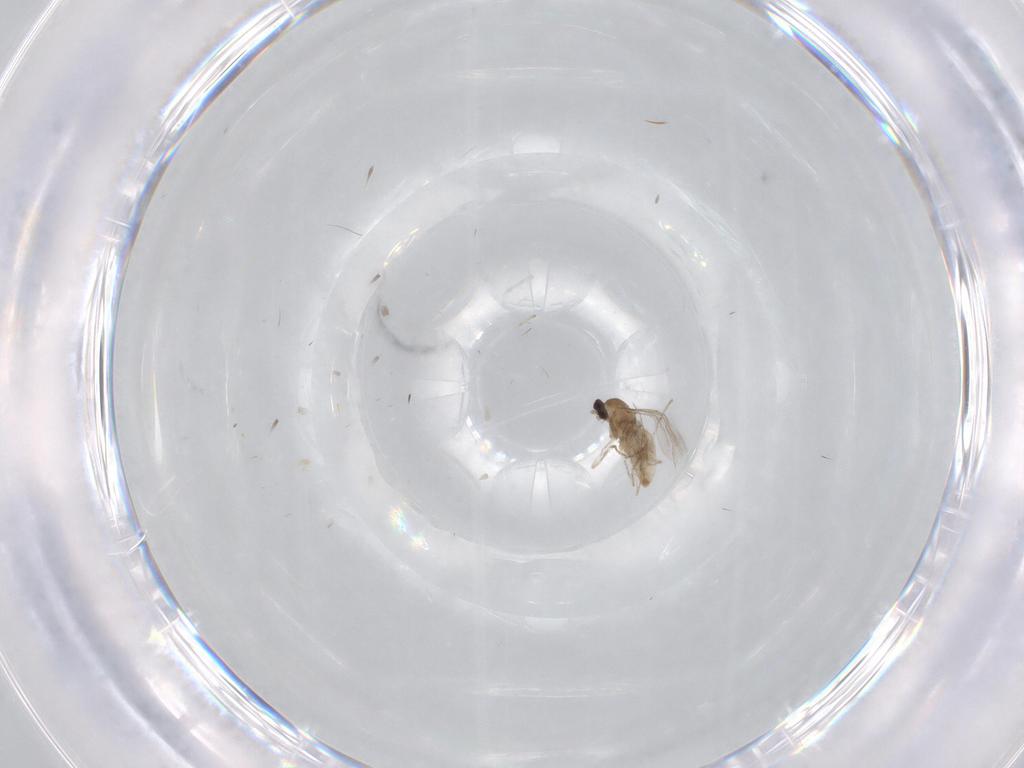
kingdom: Animalia
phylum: Arthropoda
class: Insecta
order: Diptera
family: Cecidomyiidae
